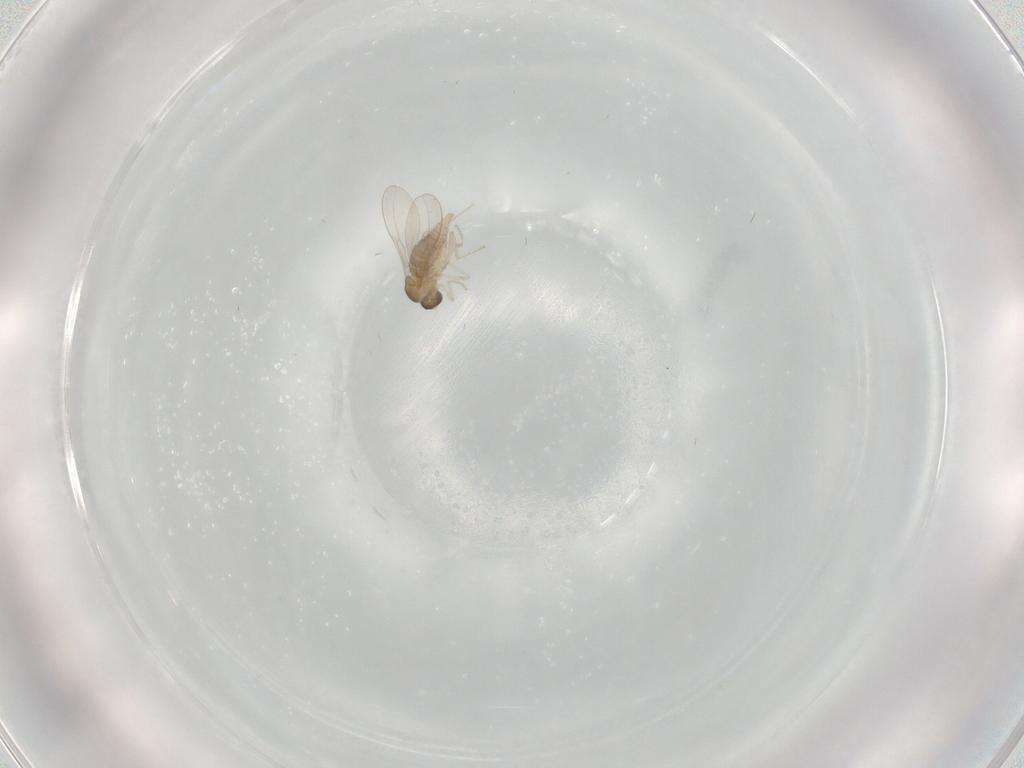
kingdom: Animalia
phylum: Arthropoda
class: Insecta
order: Diptera
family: Cecidomyiidae
